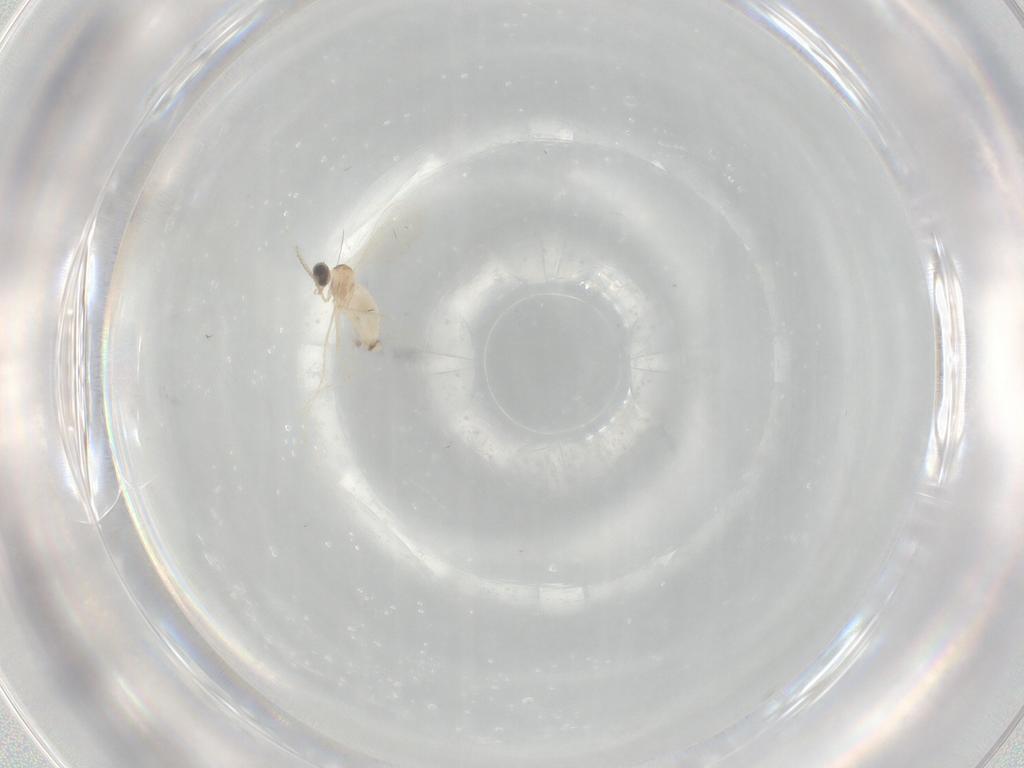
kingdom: Animalia
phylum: Arthropoda
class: Insecta
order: Diptera
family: Cecidomyiidae
